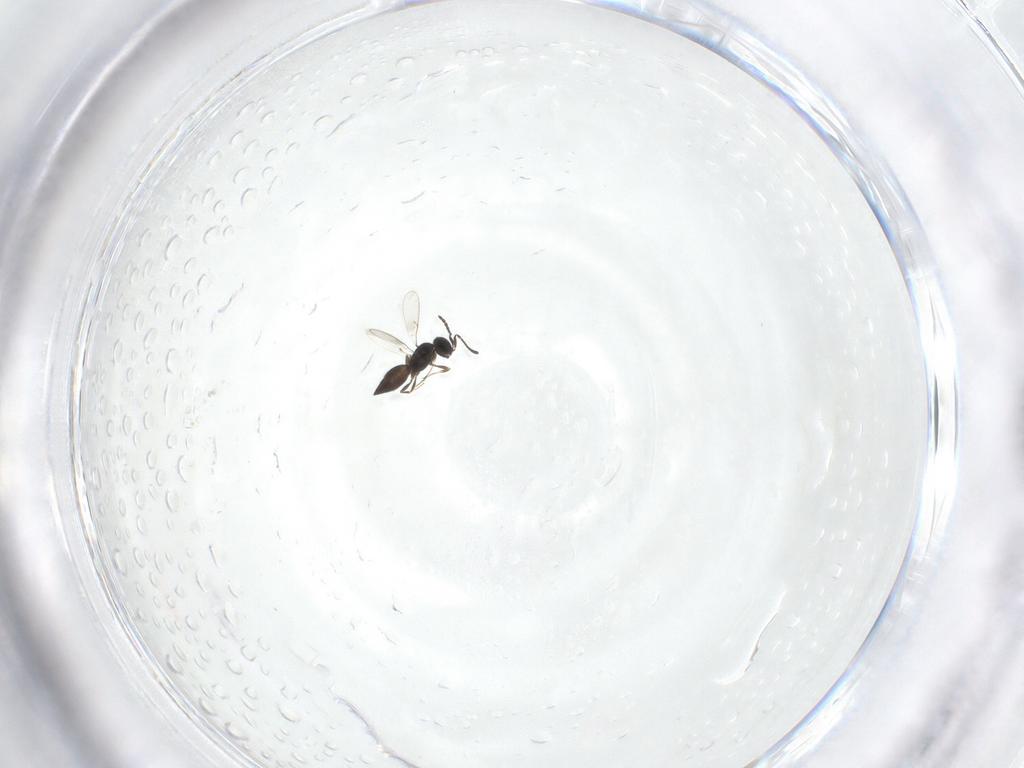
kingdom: Animalia
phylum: Arthropoda
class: Insecta
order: Hymenoptera
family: Scelionidae
